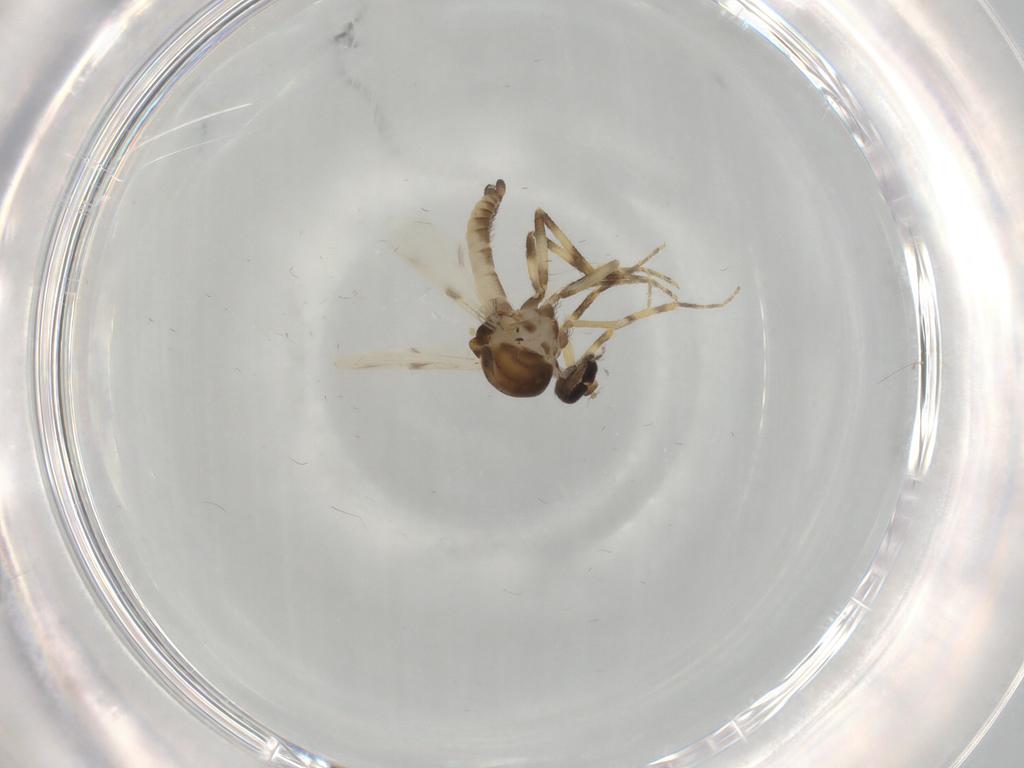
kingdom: Animalia
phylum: Arthropoda
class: Insecta
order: Diptera
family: Ceratopogonidae
